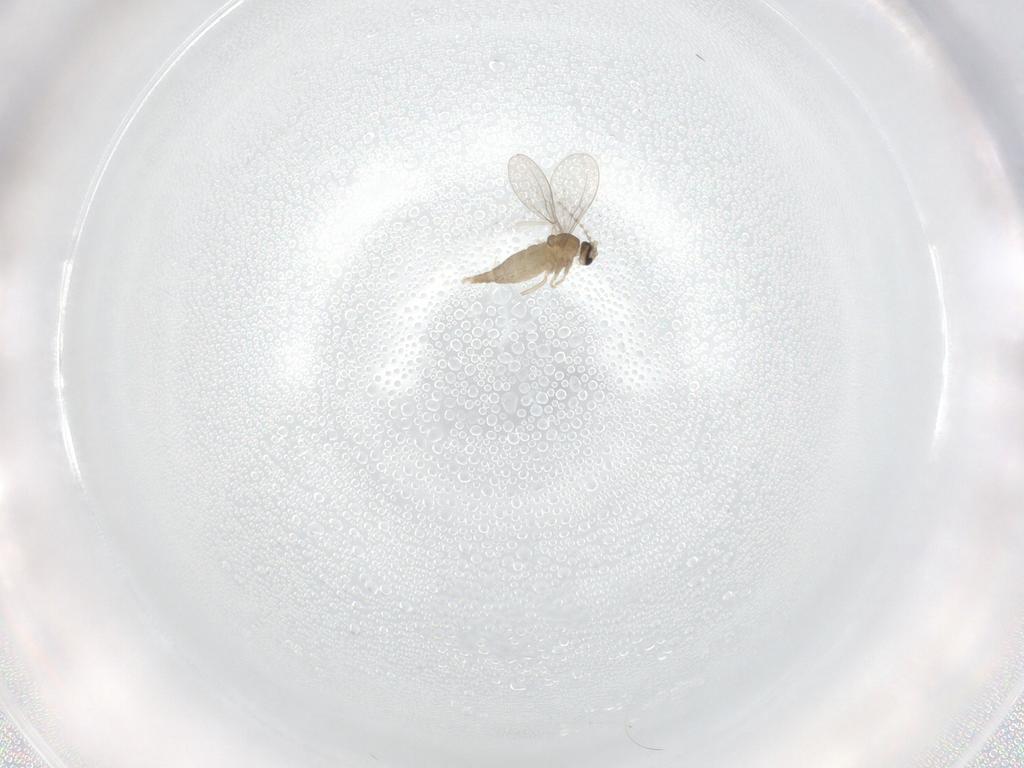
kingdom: Animalia
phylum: Arthropoda
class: Insecta
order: Diptera
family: Cecidomyiidae
